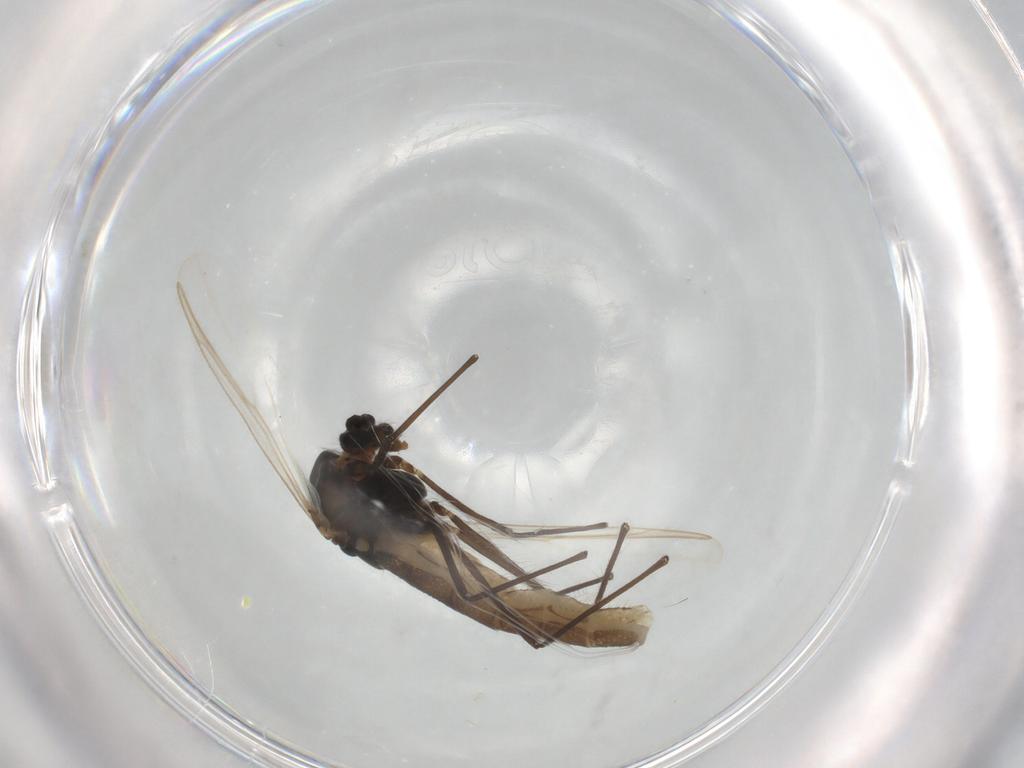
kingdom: Animalia
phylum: Arthropoda
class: Insecta
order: Diptera
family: Chironomidae
